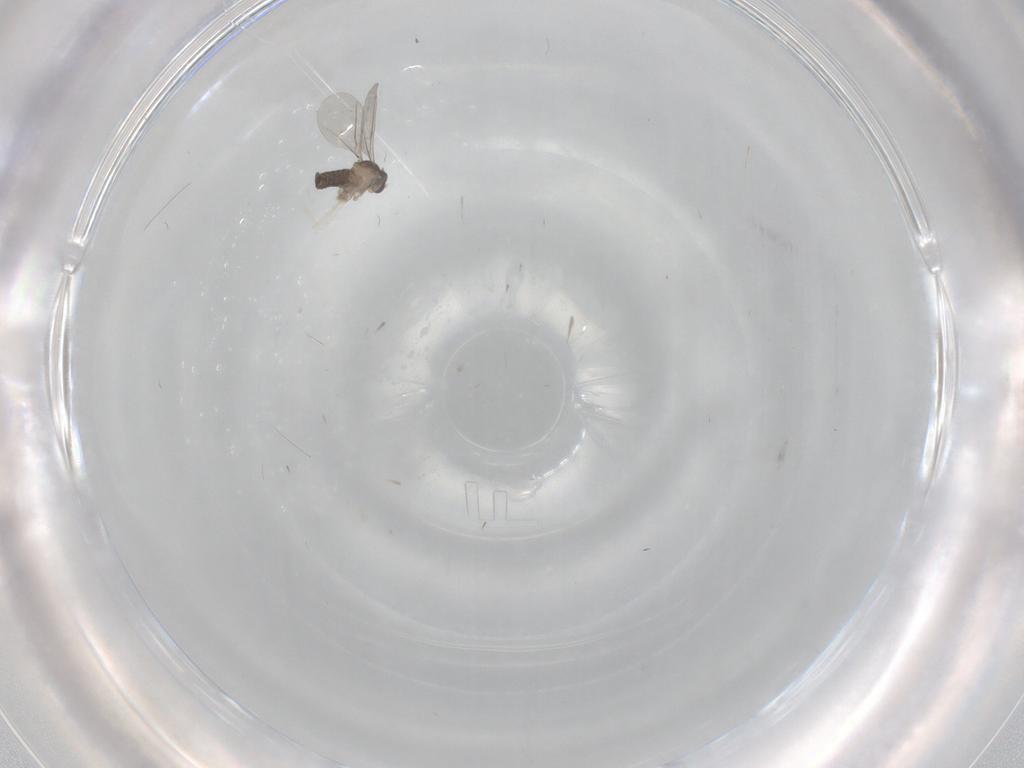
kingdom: Animalia
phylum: Arthropoda
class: Insecta
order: Diptera
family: Cecidomyiidae
